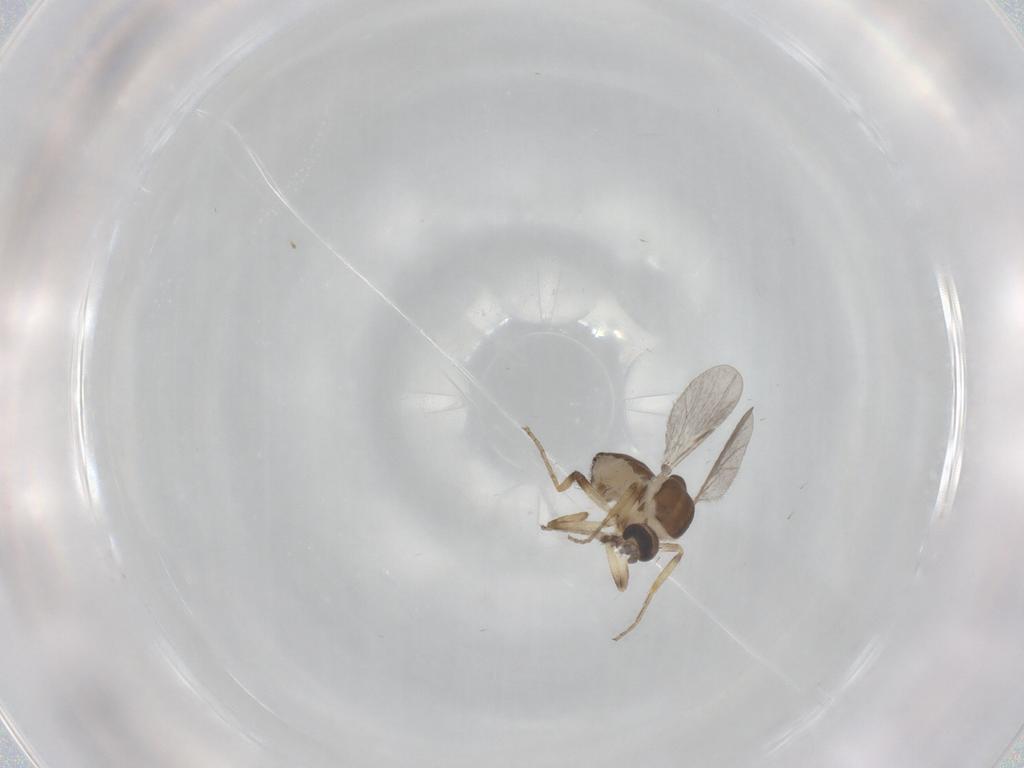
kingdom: Animalia
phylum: Arthropoda
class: Insecta
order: Diptera
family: Ceratopogonidae
